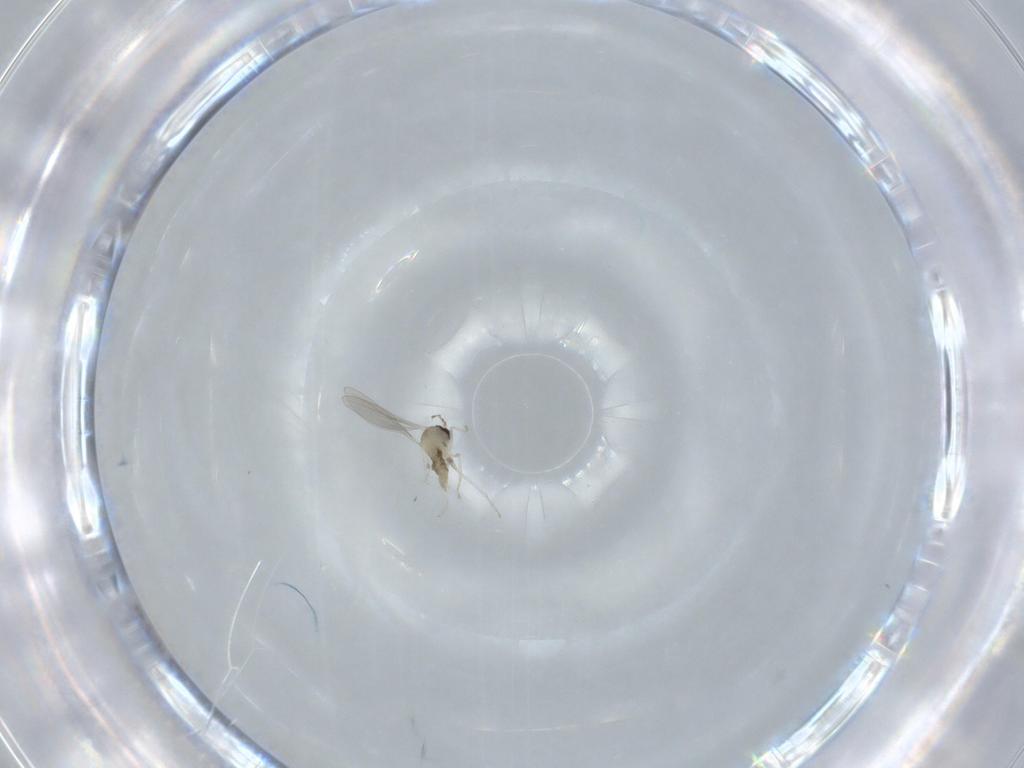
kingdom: Animalia
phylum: Arthropoda
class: Insecta
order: Diptera
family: Cecidomyiidae
